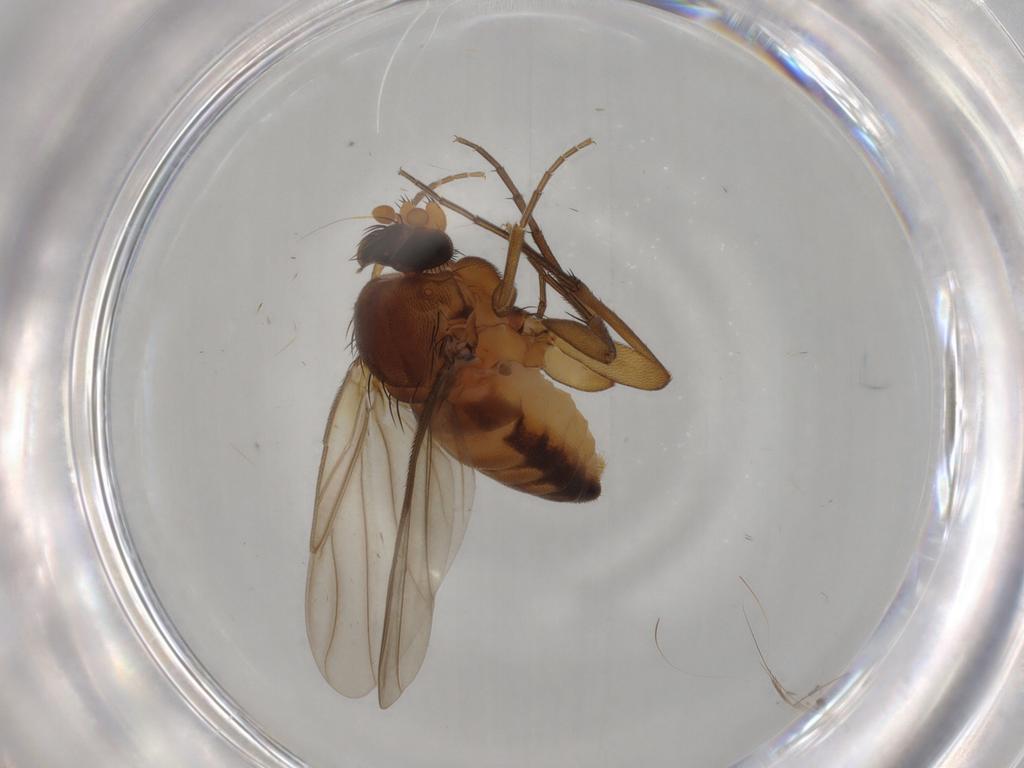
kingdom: Animalia
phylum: Arthropoda
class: Insecta
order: Diptera
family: Phoridae
